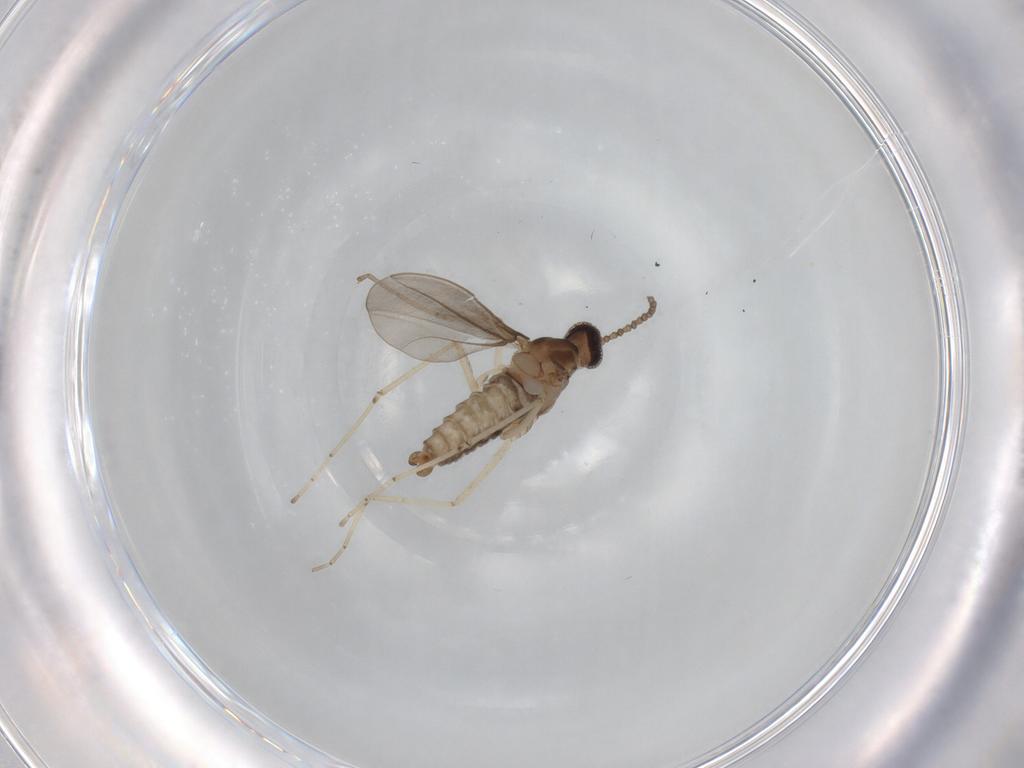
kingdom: Animalia
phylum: Arthropoda
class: Insecta
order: Diptera
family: Cecidomyiidae
